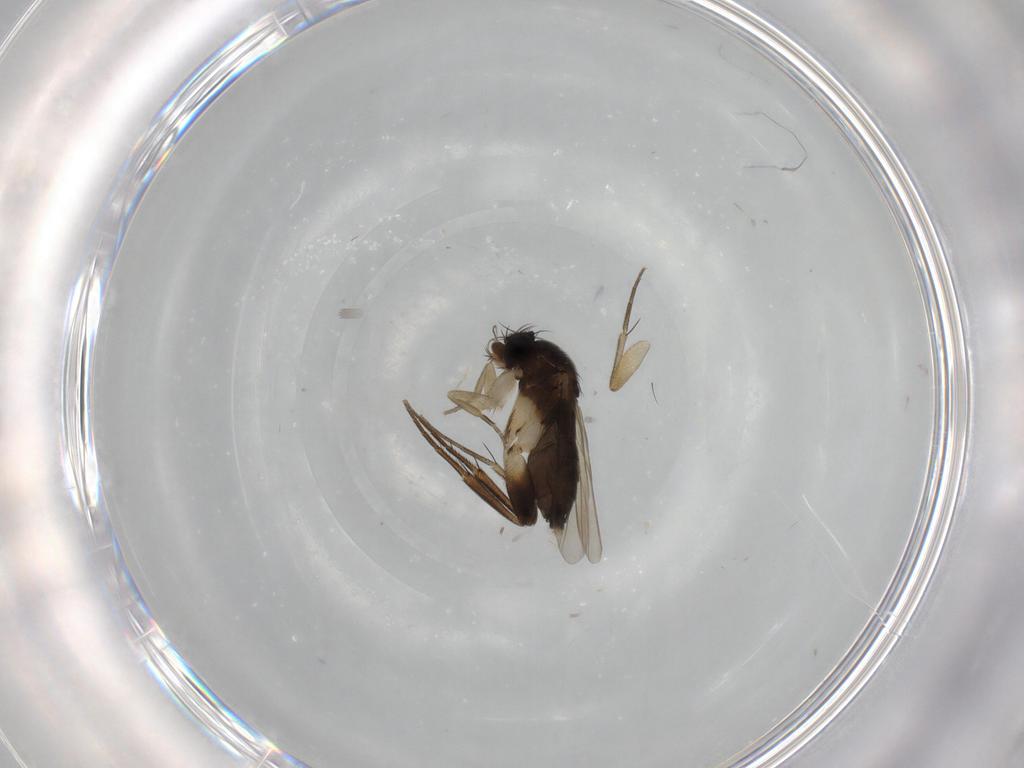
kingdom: Animalia
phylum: Arthropoda
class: Insecta
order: Diptera
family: Phoridae
